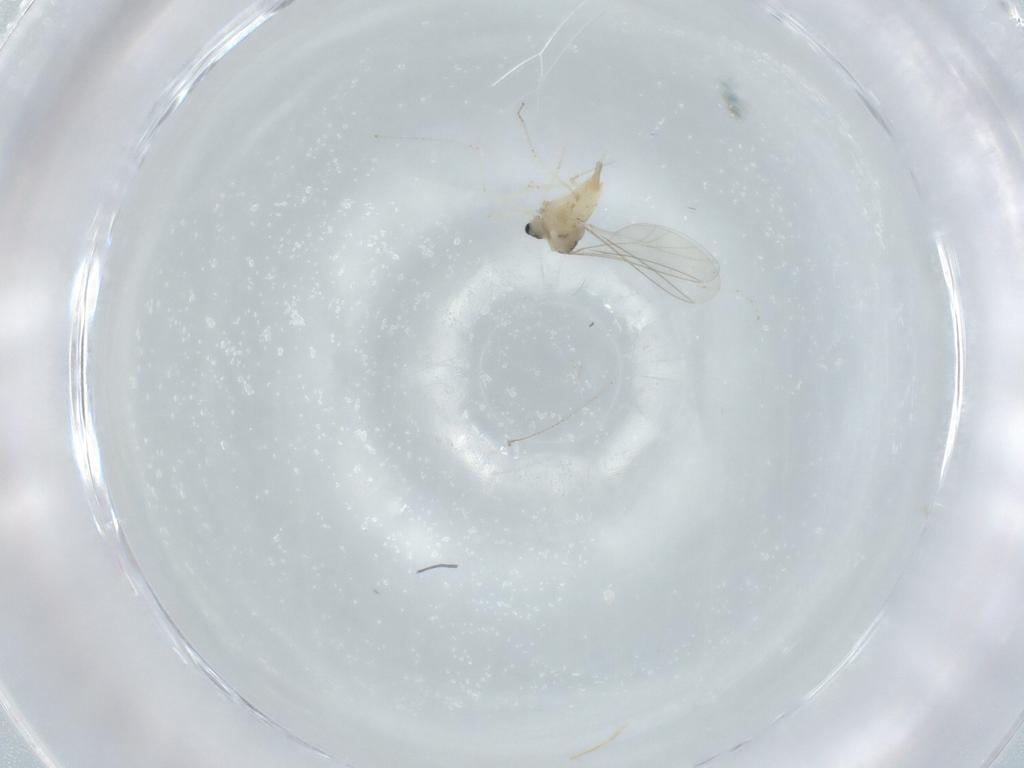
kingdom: Animalia
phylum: Arthropoda
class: Insecta
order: Diptera
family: Cecidomyiidae
